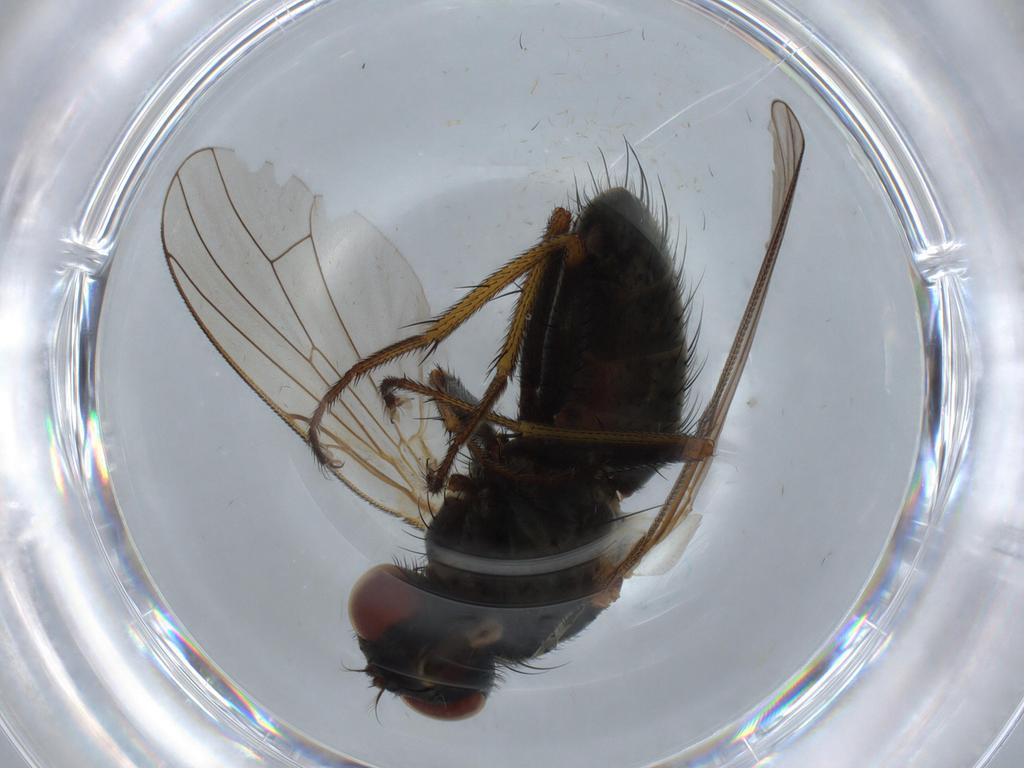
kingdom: Animalia
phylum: Arthropoda
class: Insecta
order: Diptera
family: Muscidae
